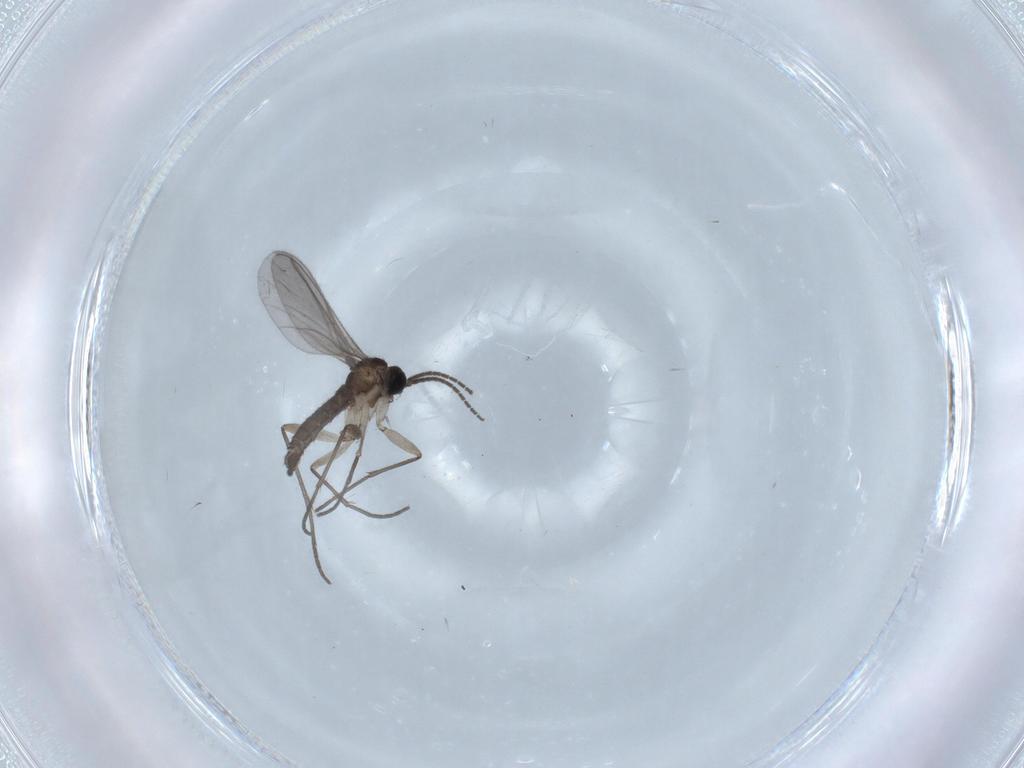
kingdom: Animalia
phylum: Arthropoda
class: Insecta
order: Diptera
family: Sciaridae
